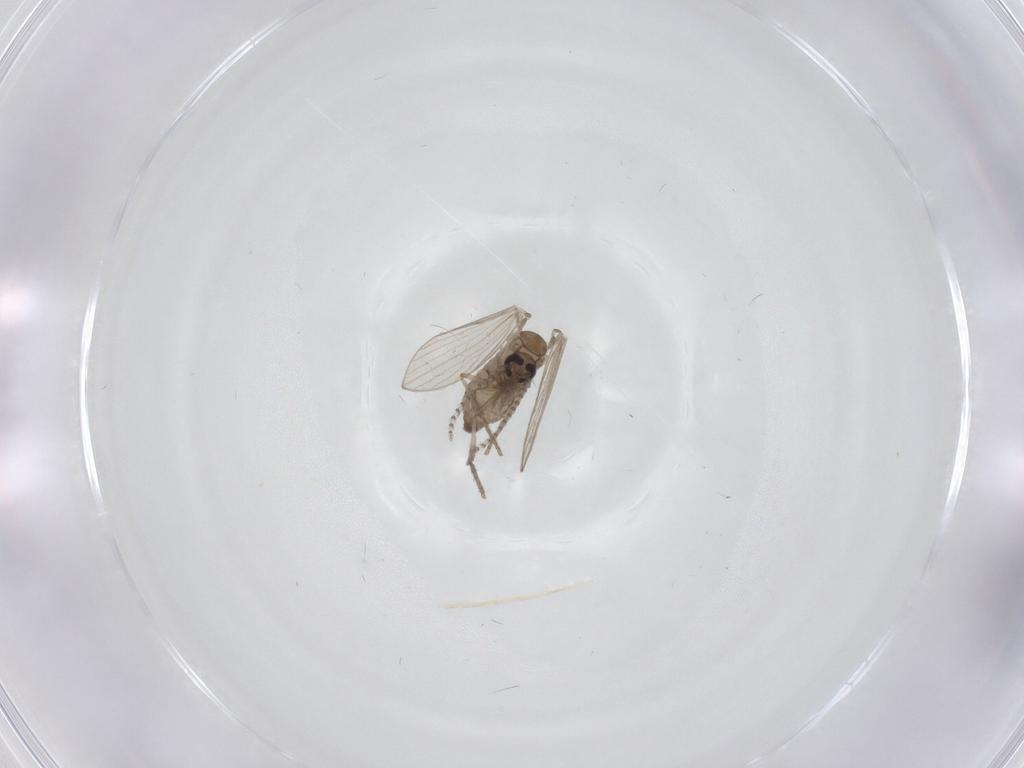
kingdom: Animalia
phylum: Arthropoda
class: Insecta
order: Diptera
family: Psychodidae
